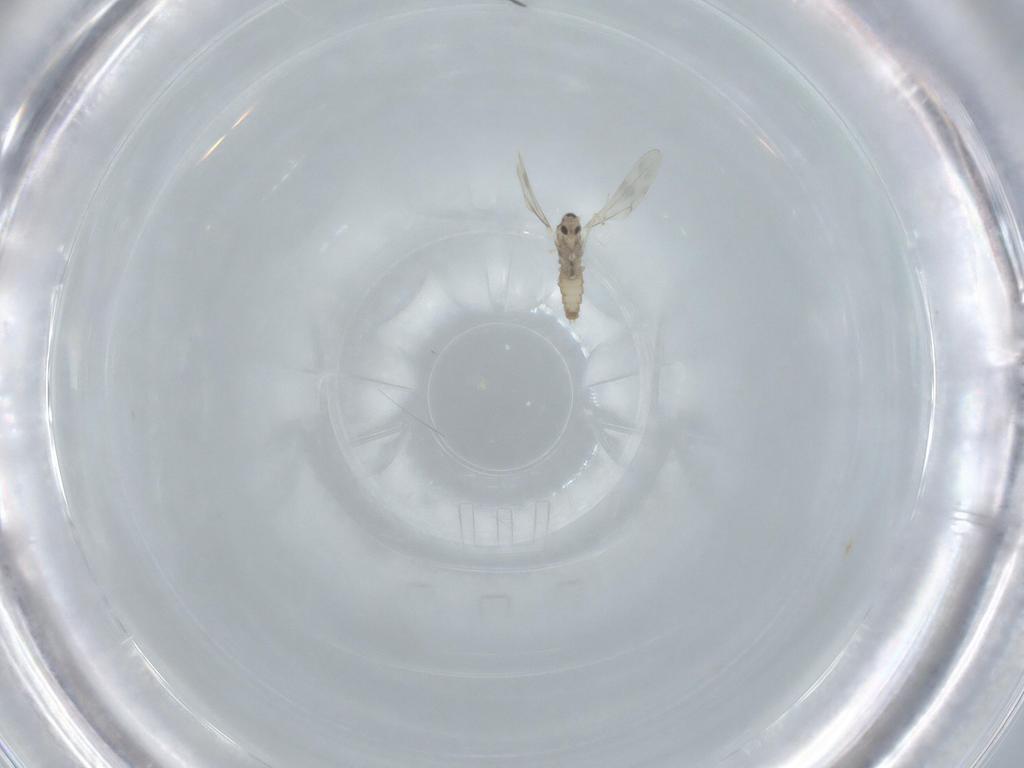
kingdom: Animalia
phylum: Arthropoda
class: Insecta
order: Diptera
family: Cecidomyiidae
